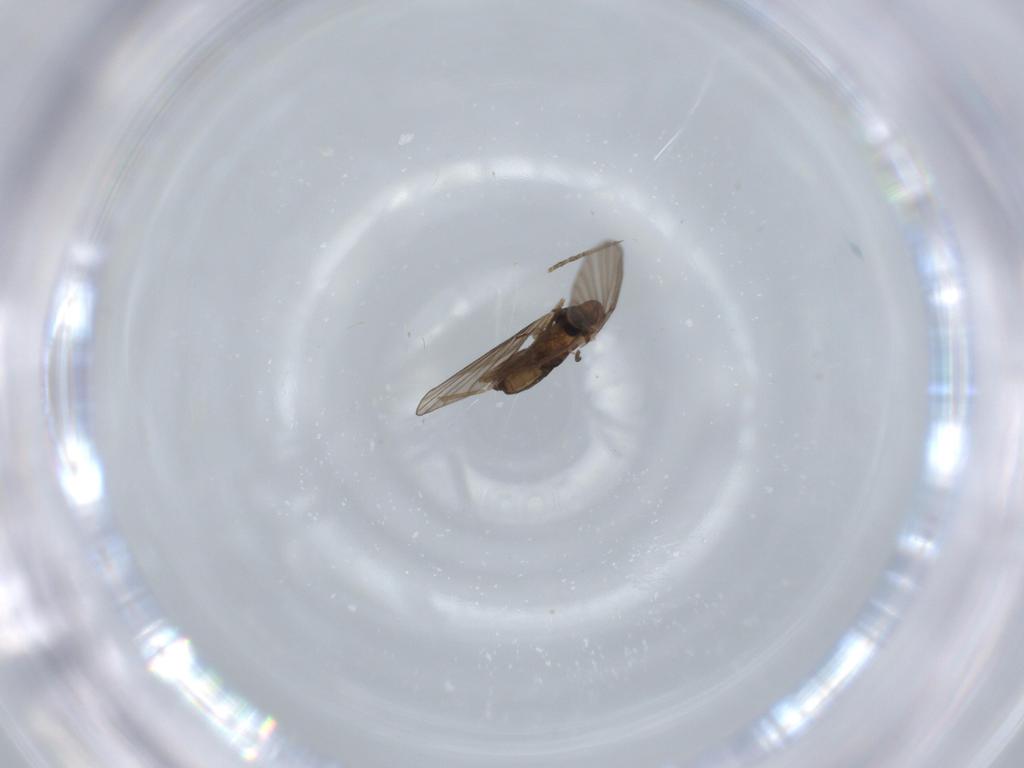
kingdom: Animalia
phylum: Arthropoda
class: Insecta
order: Diptera
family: Psychodidae
